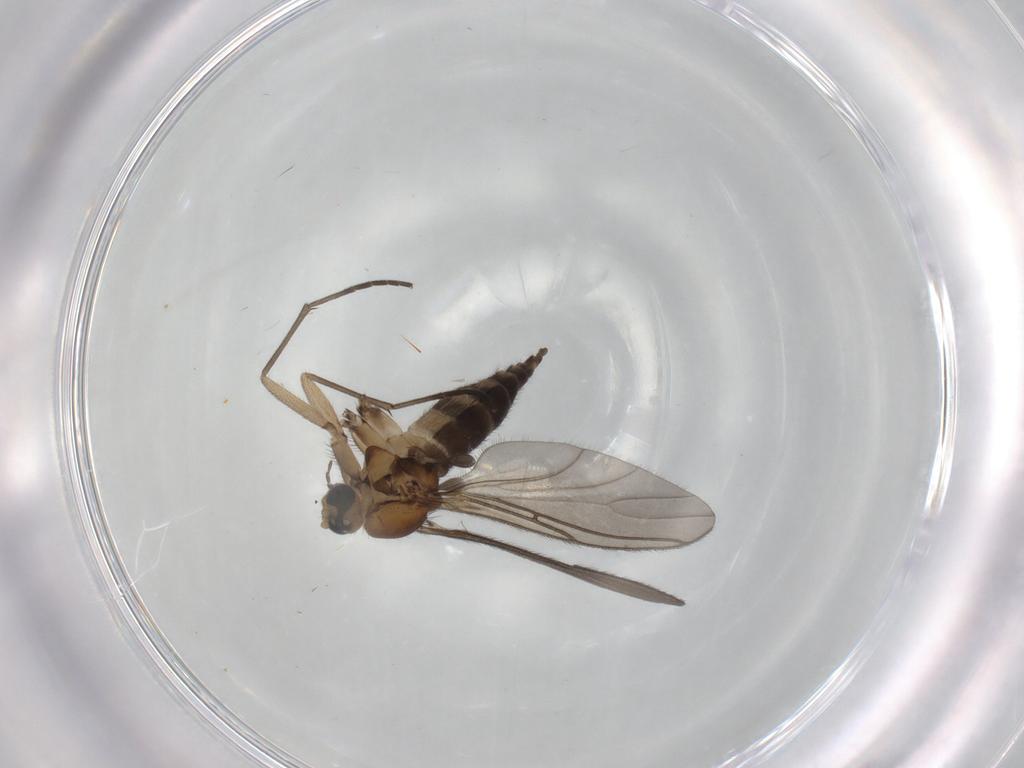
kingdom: Animalia
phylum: Arthropoda
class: Insecta
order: Diptera
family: Sciaridae
